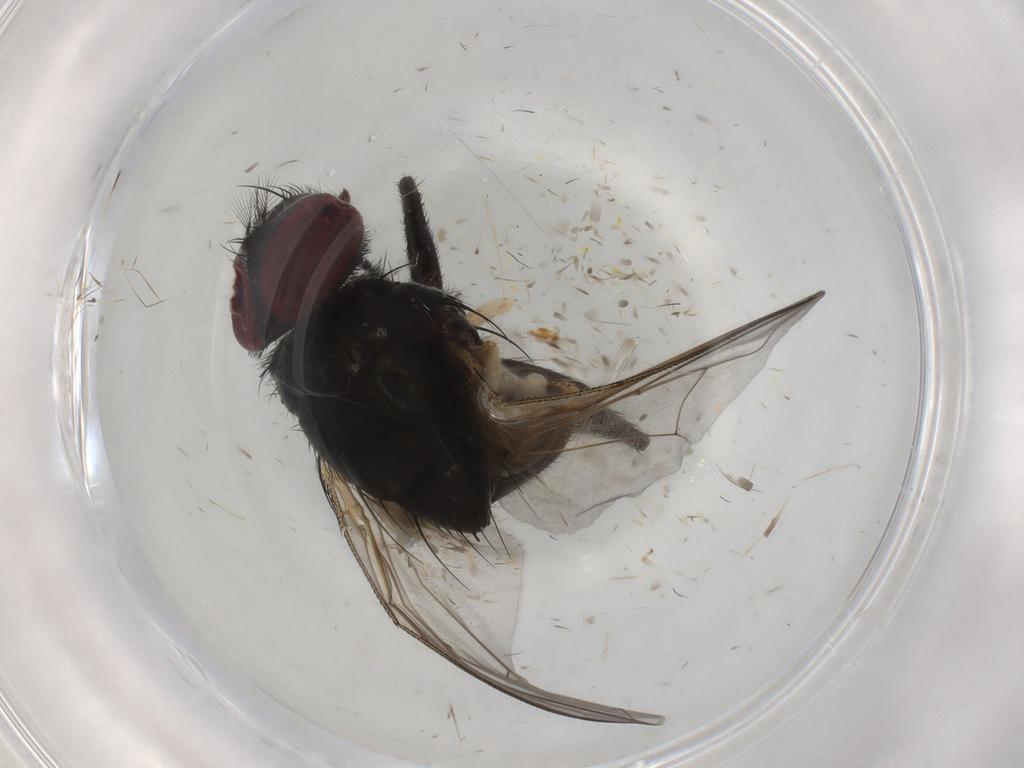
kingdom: Animalia
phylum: Arthropoda
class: Insecta
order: Diptera
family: Muscidae
